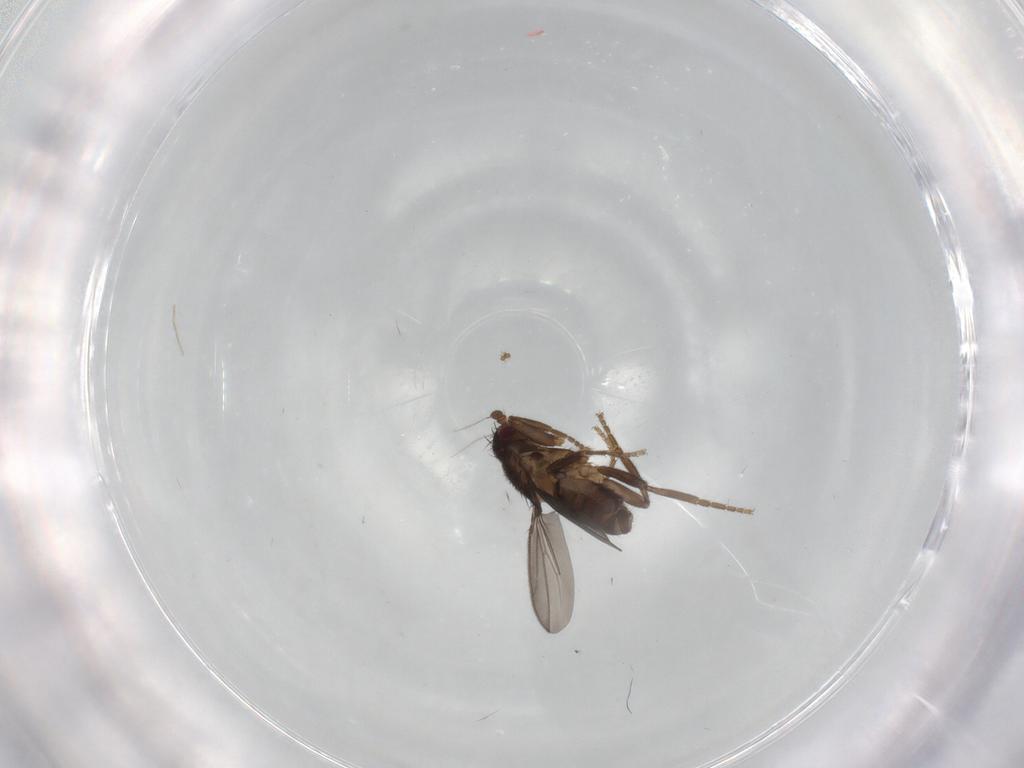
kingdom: Animalia
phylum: Arthropoda
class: Insecta
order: Diptera
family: Sphaeroceridae
